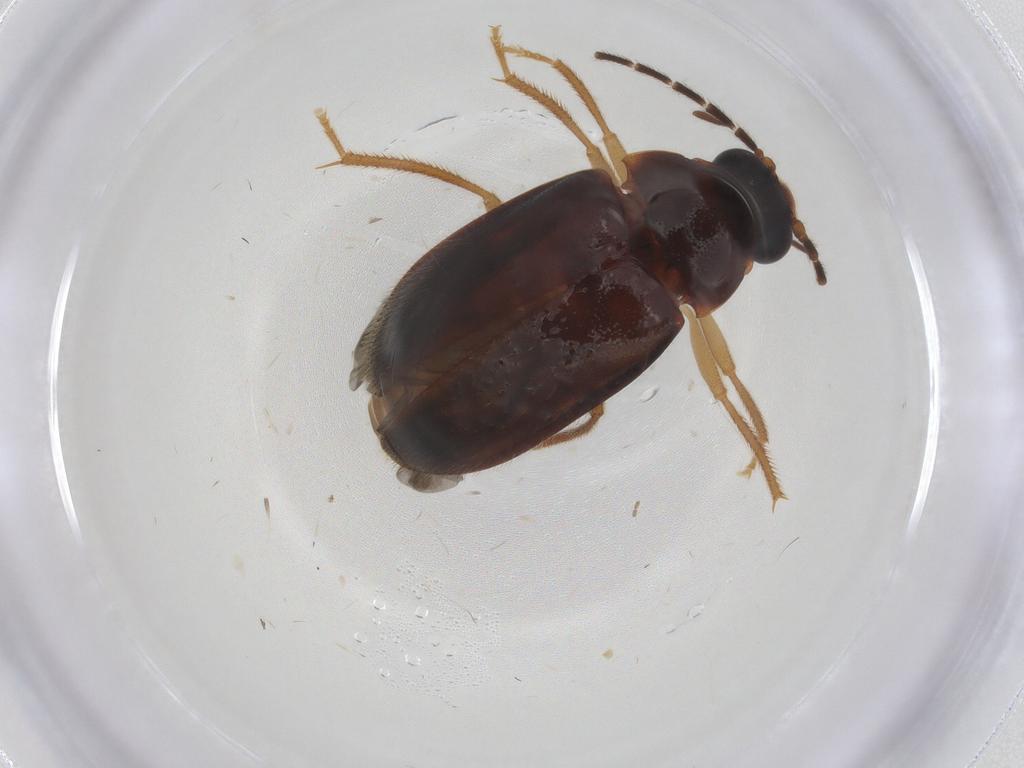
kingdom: Animalia
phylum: Arthropoda
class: Insecta
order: Coleoptera
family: Ptilodactylidae
